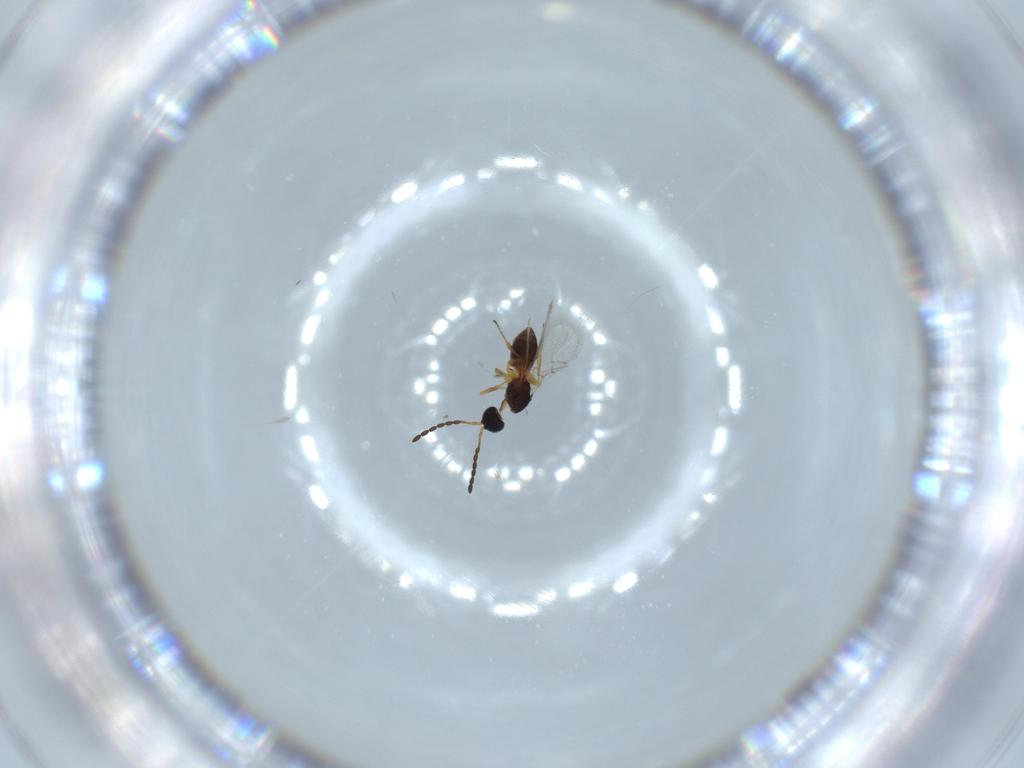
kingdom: Animalia
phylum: Arthropoda
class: Insecta
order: Hymenoptera
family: Figitidae
